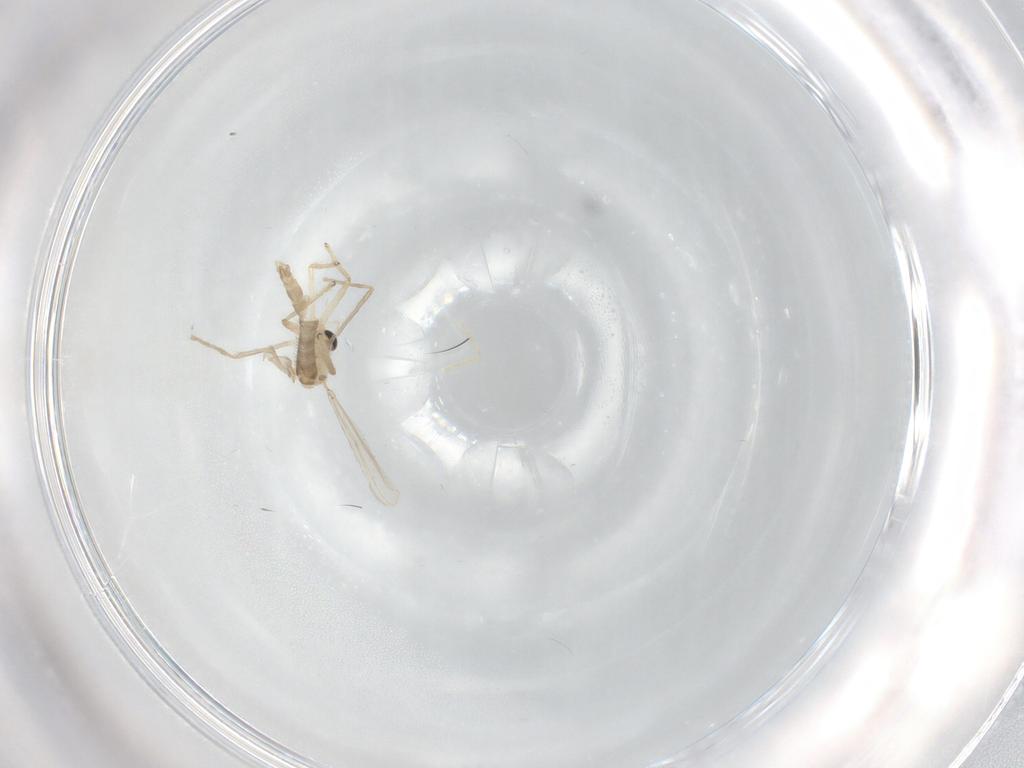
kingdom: Animalia
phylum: Arthropoda
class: Insecta
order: Diptera
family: Chironomidae
